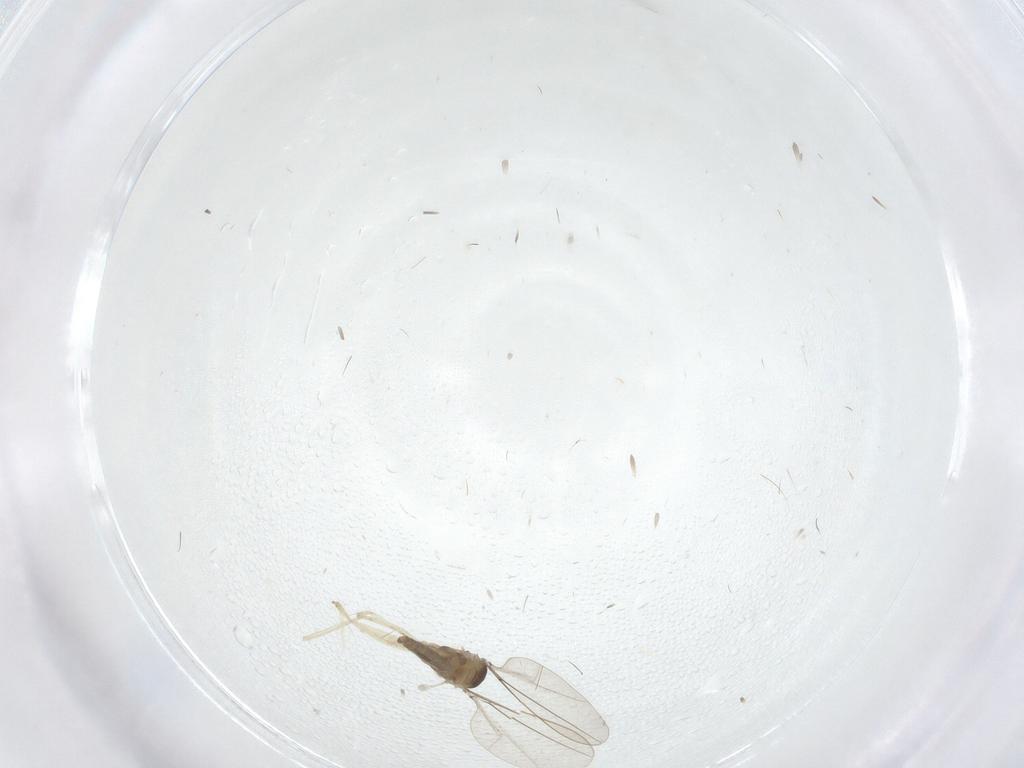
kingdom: Animalia
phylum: Arthropoda
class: Insecta
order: Diptera
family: Cecidomyiidae
